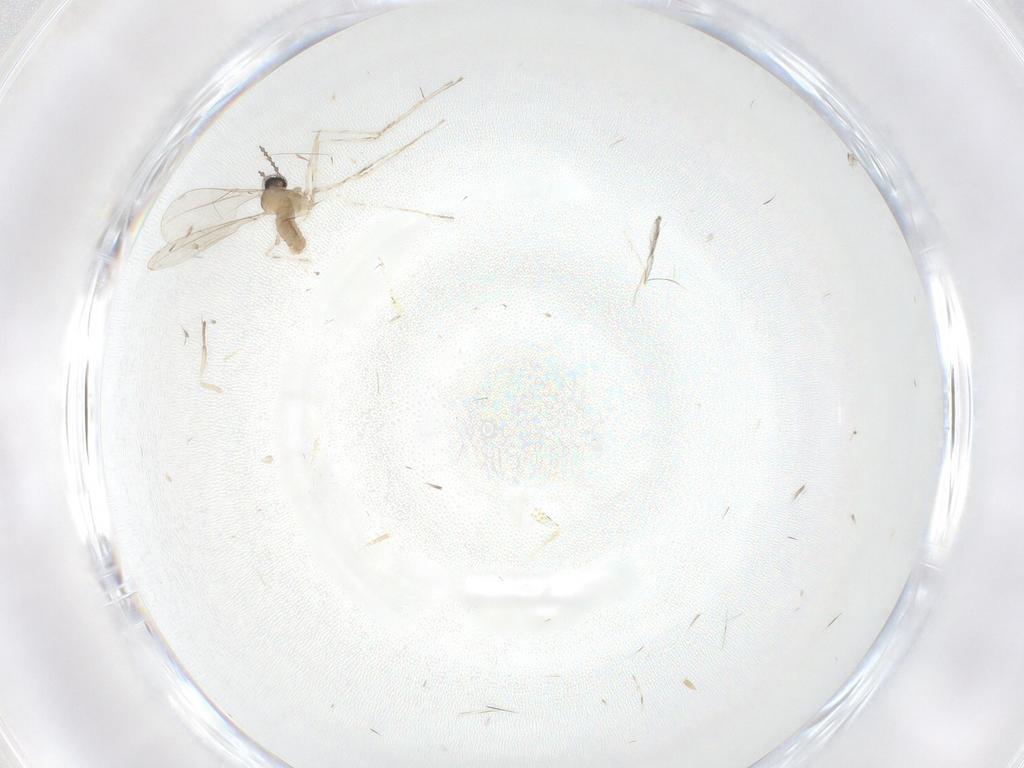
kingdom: Animalia
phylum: Arthropoda
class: Insecta
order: Diptera
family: Cecidomyiidae
